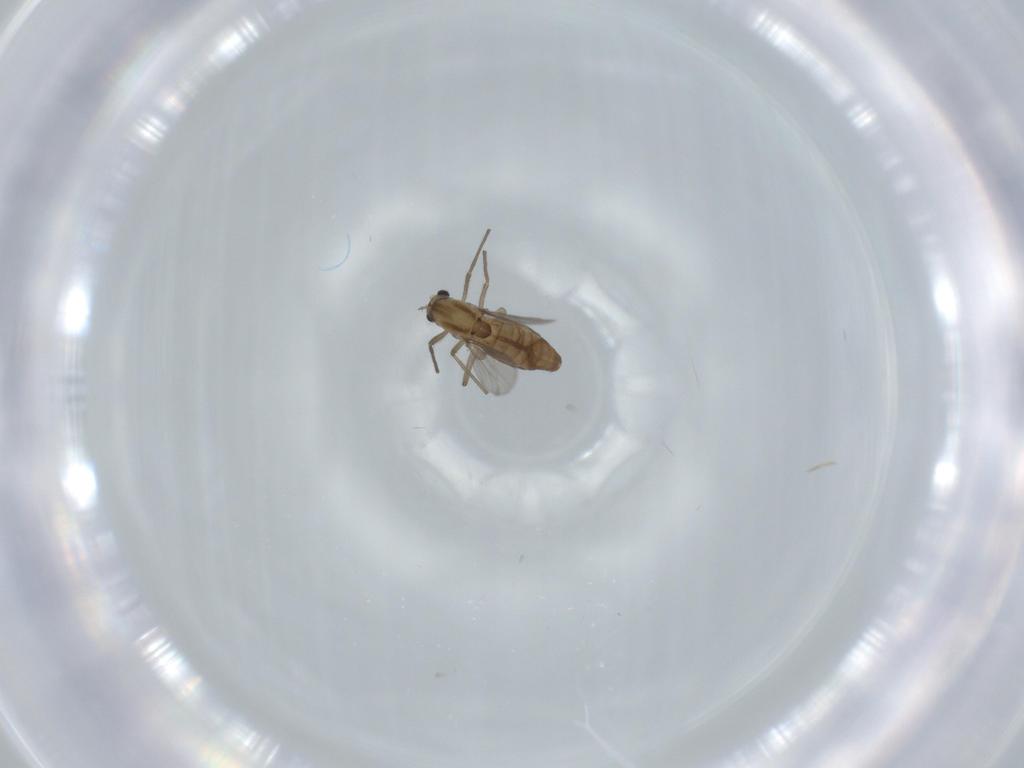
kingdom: Animalia
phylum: Arthropoda
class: Insecta
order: Diptera
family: Chironomidae
